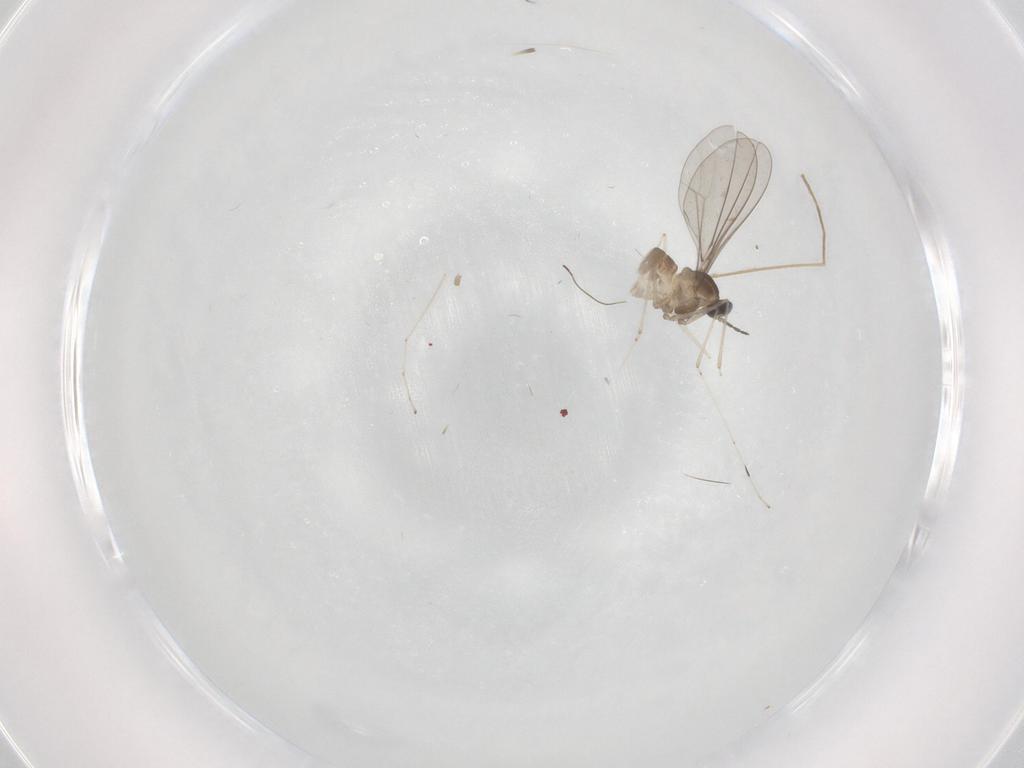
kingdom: Animalia
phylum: Arthropoda
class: Insecta
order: Diptera
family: Cecidomyiidae
